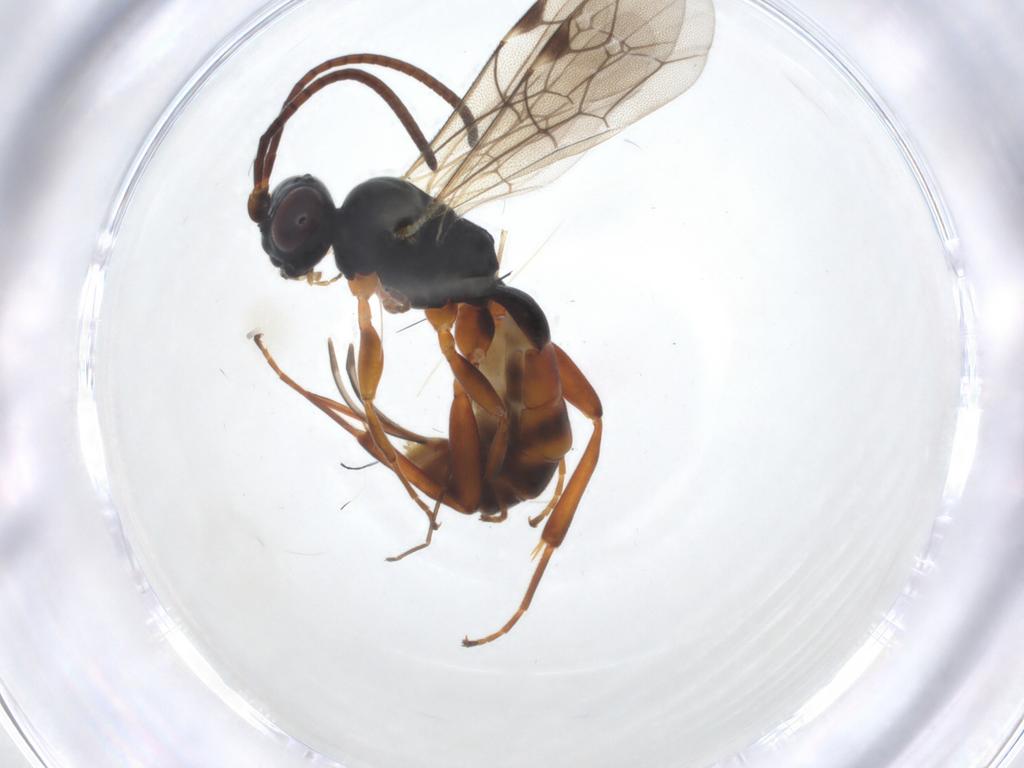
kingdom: Animalia
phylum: Arthropoda
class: Insecta
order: Hymenoptera
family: Ichneumonidae
